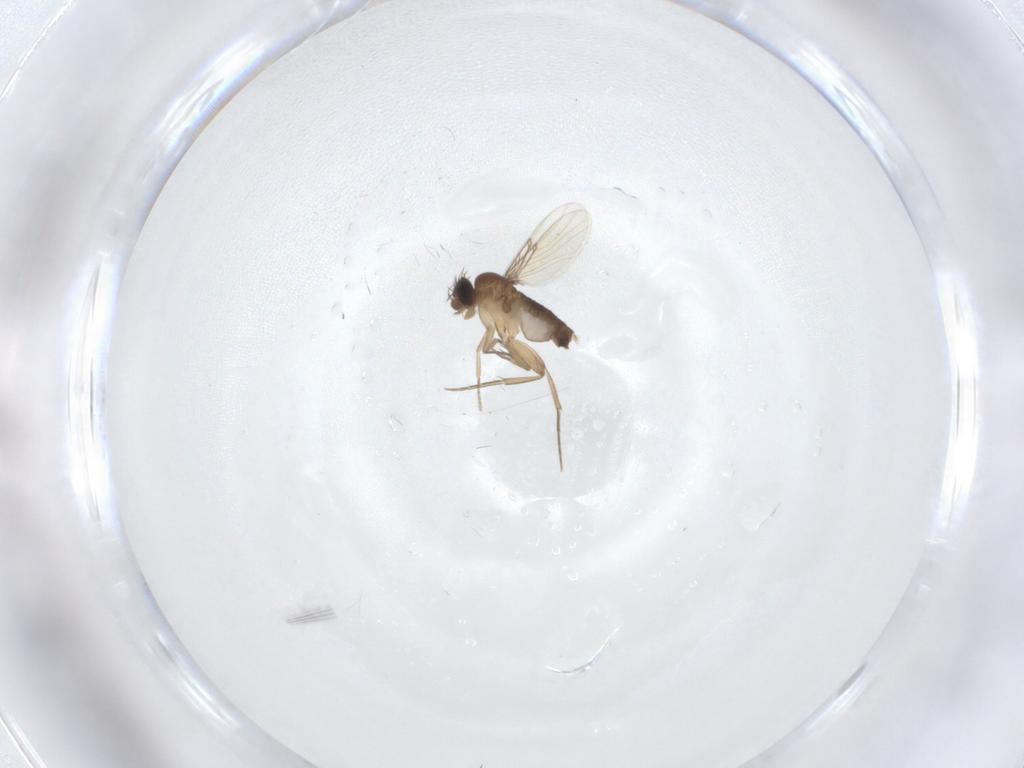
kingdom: Animalia
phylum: Arthropoda
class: Insecta
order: Diptera
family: Phoridae
